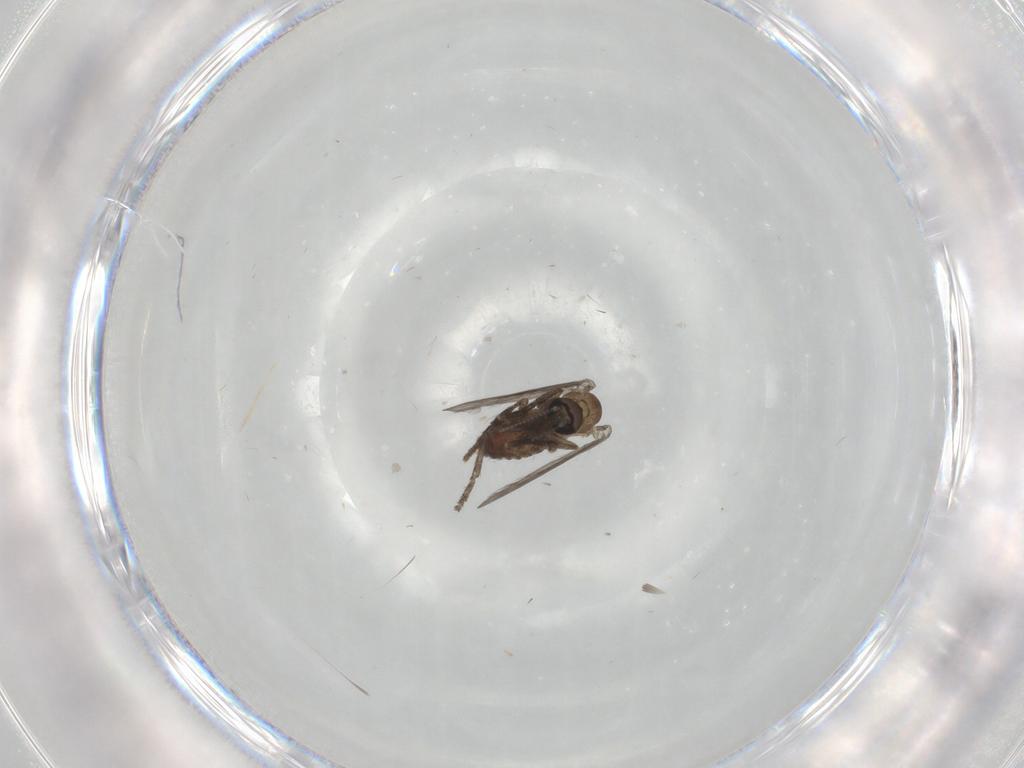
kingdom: Animalia
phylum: Arthropoda
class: Insecta
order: Diptera
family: Psychodidae
